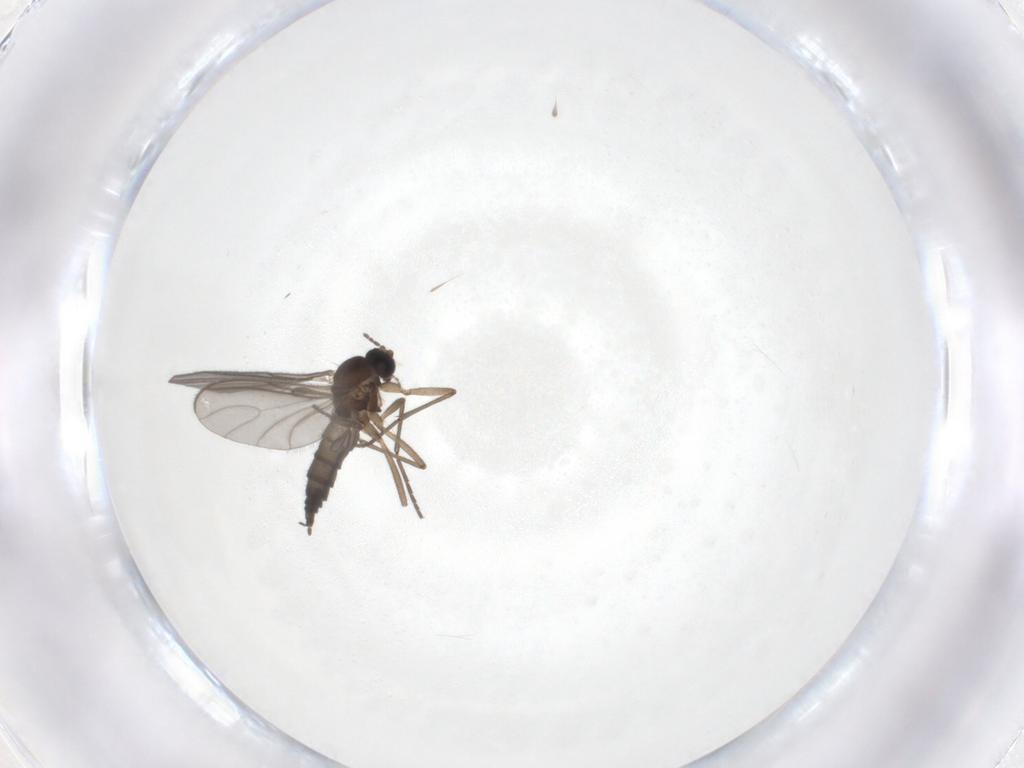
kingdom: Animalia
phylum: Arthropoda
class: Insecta
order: Diptera
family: Sciaridae
